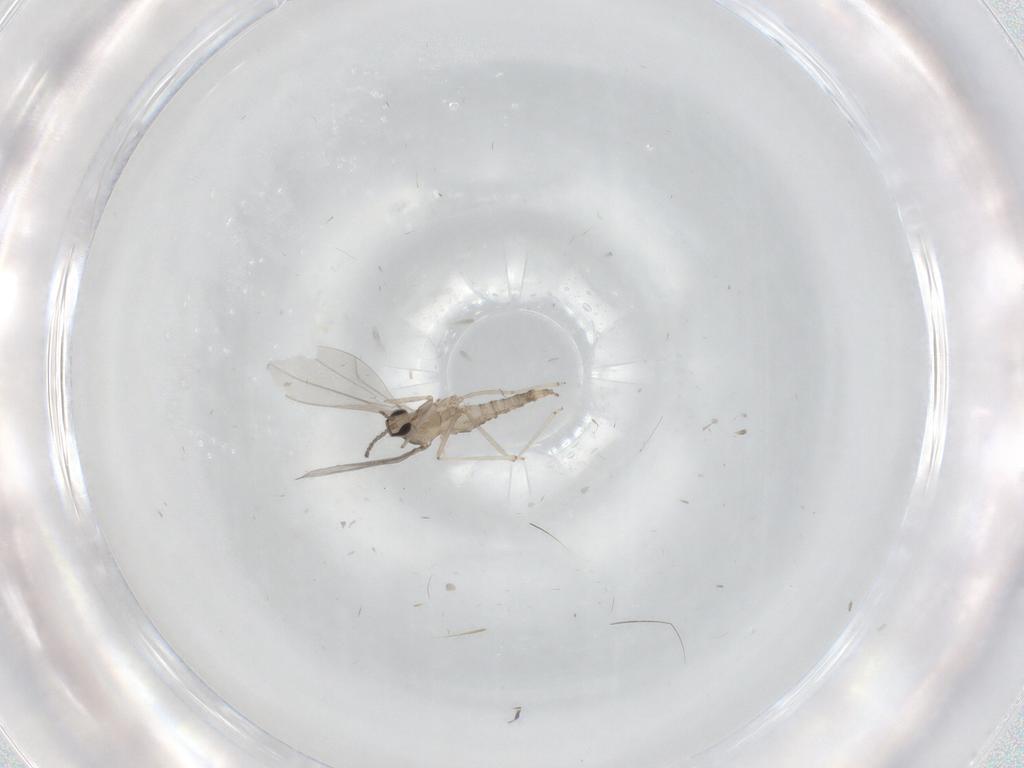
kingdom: Animalia
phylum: Arthropoda
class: Insecta
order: Diptera
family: Cecidomyiidae
